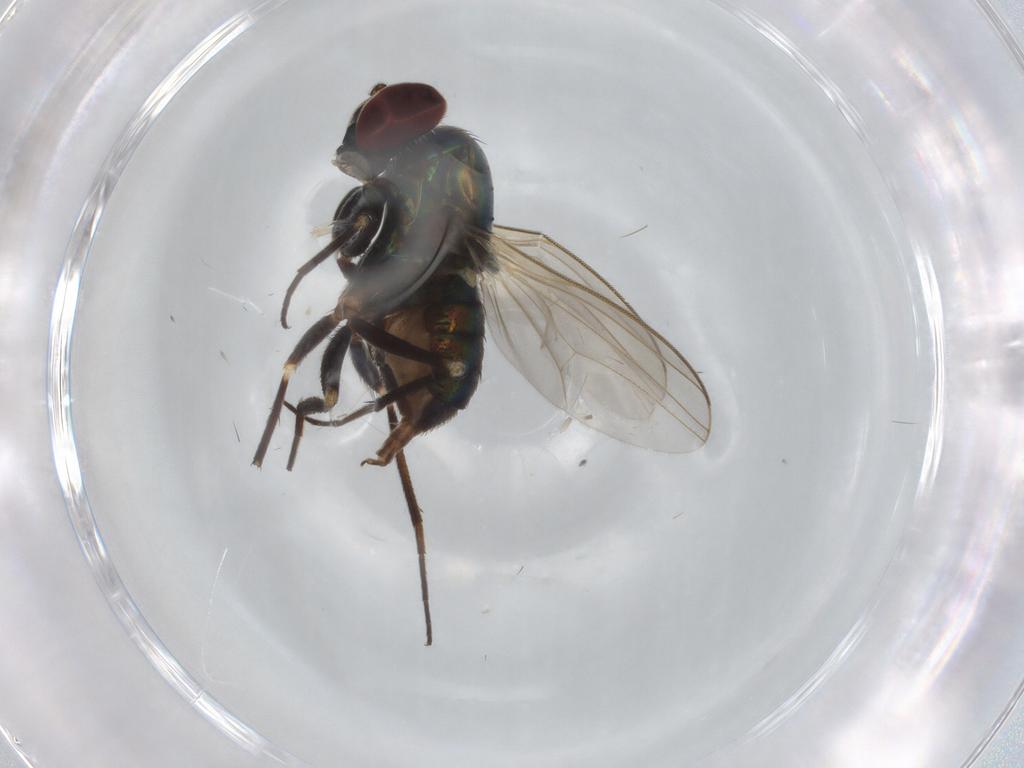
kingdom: Animalia
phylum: Arthropoda
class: Insecta
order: Diptera
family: Dolichopodidae
